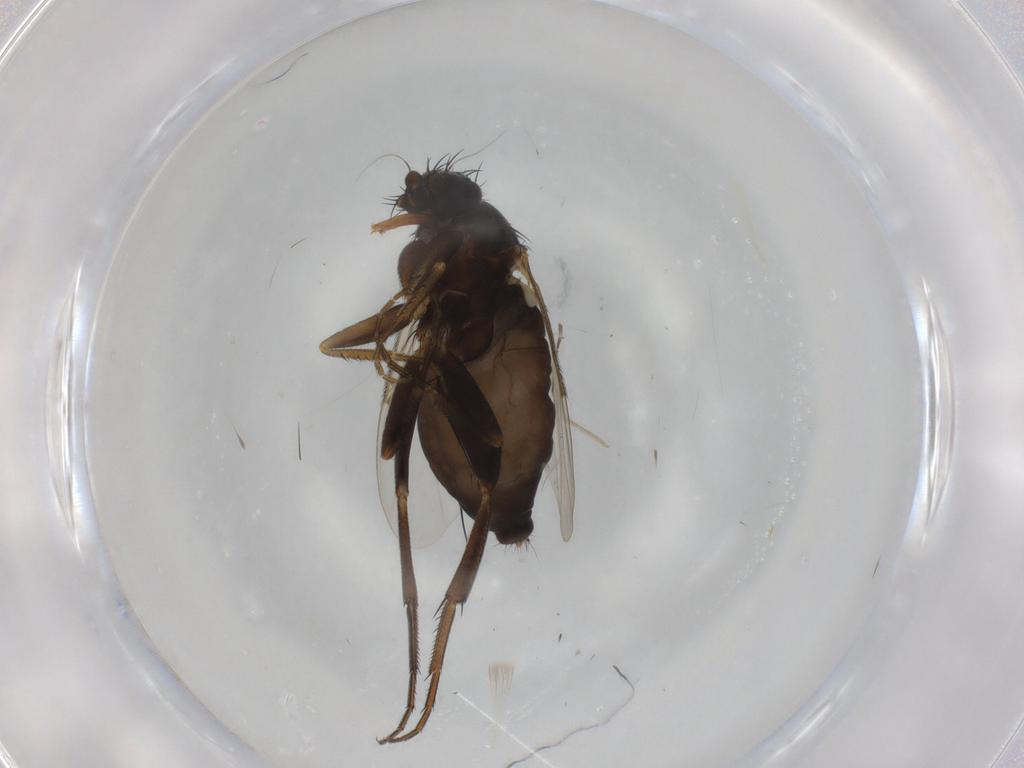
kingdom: Animalia
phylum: Arthropoda
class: Insecta
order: Diptera
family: Phoridae
